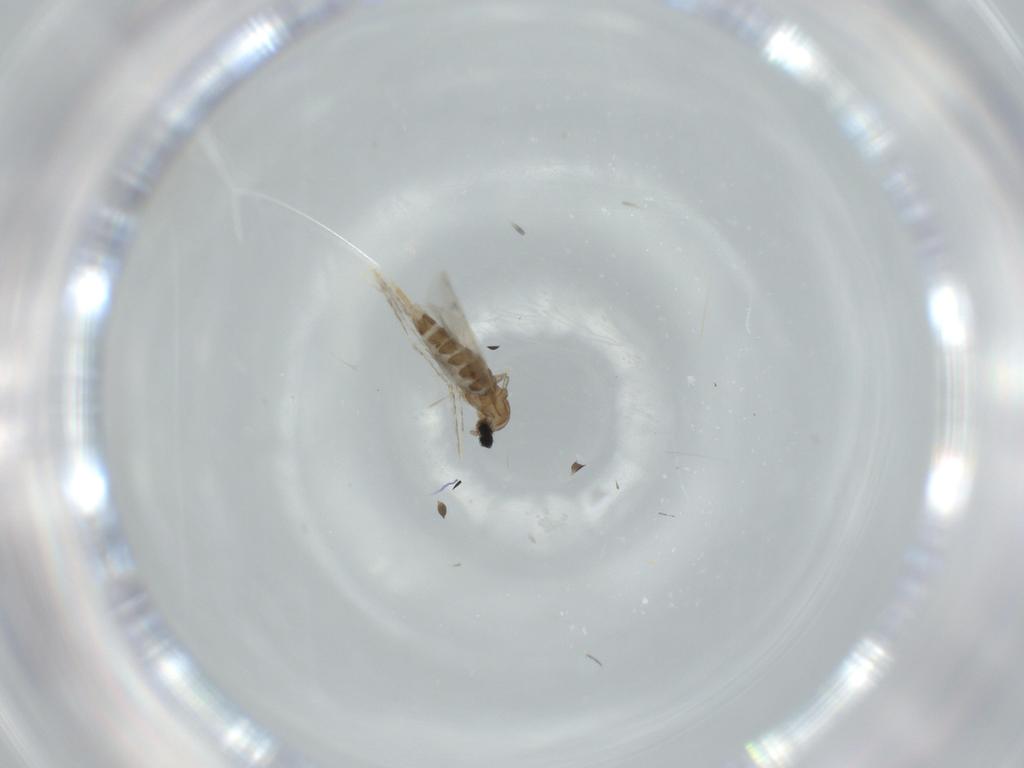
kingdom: Animalia
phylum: Arthropoda
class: Insecta
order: Diptera
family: Cecidomyiidae
